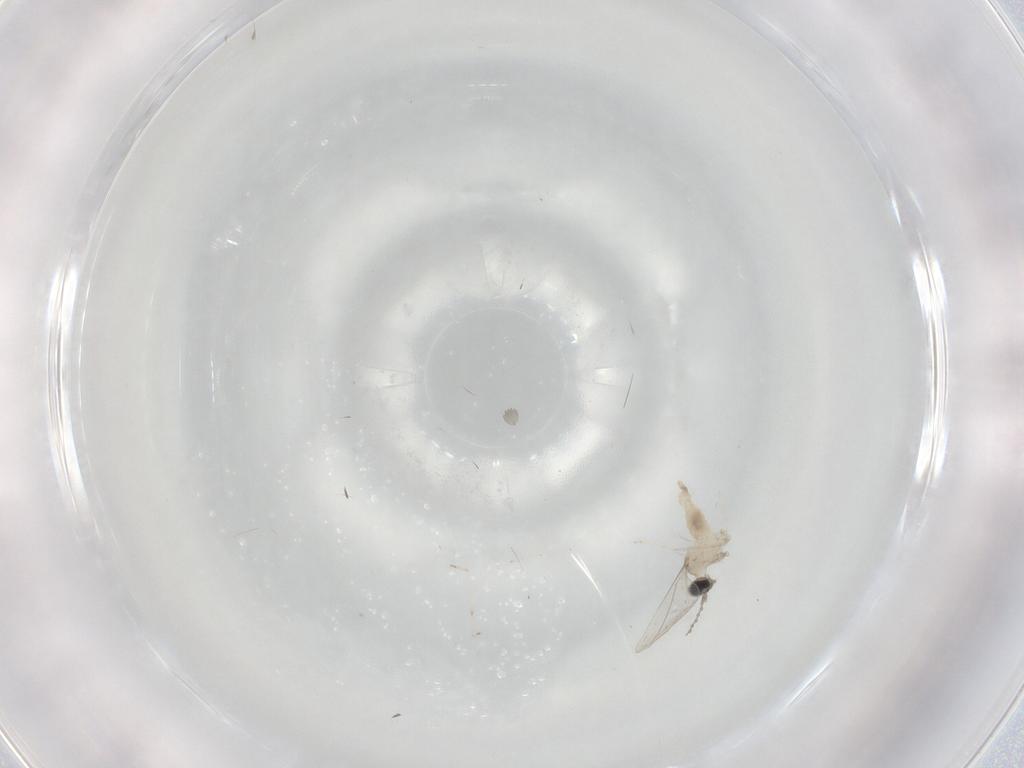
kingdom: Animalia
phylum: Arthropoda
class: Insecta
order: Diptera
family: Cecidomyiidae
